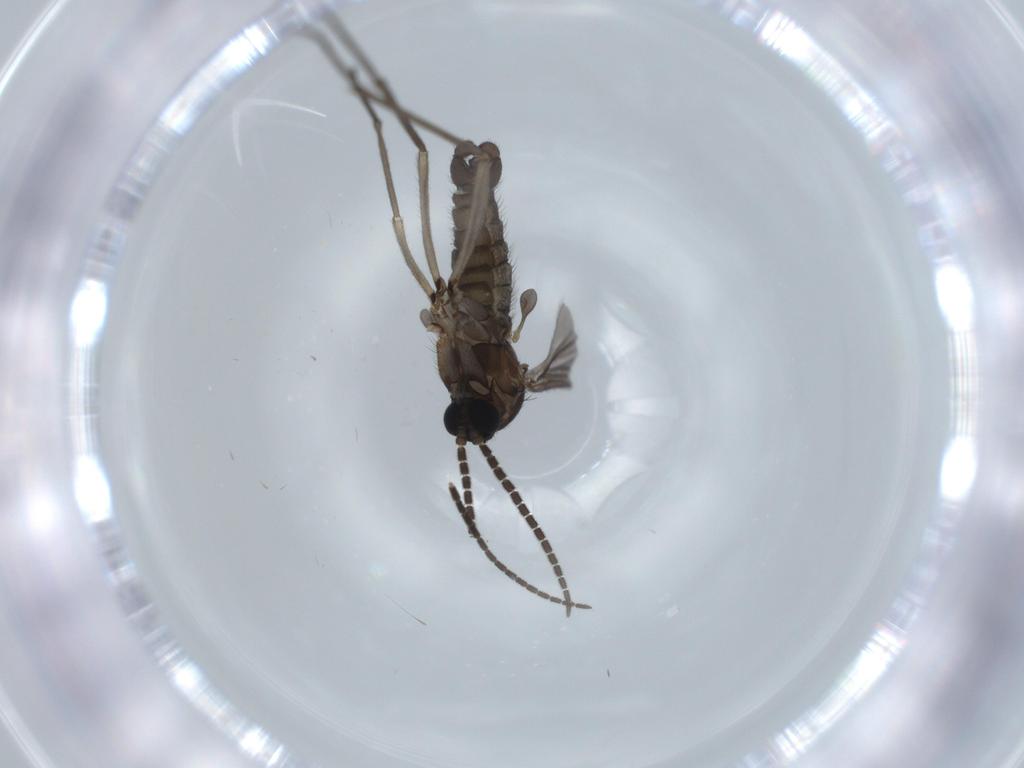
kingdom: Animalia
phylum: Arthropoda
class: Insecta
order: Diptera
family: Sciaridae
